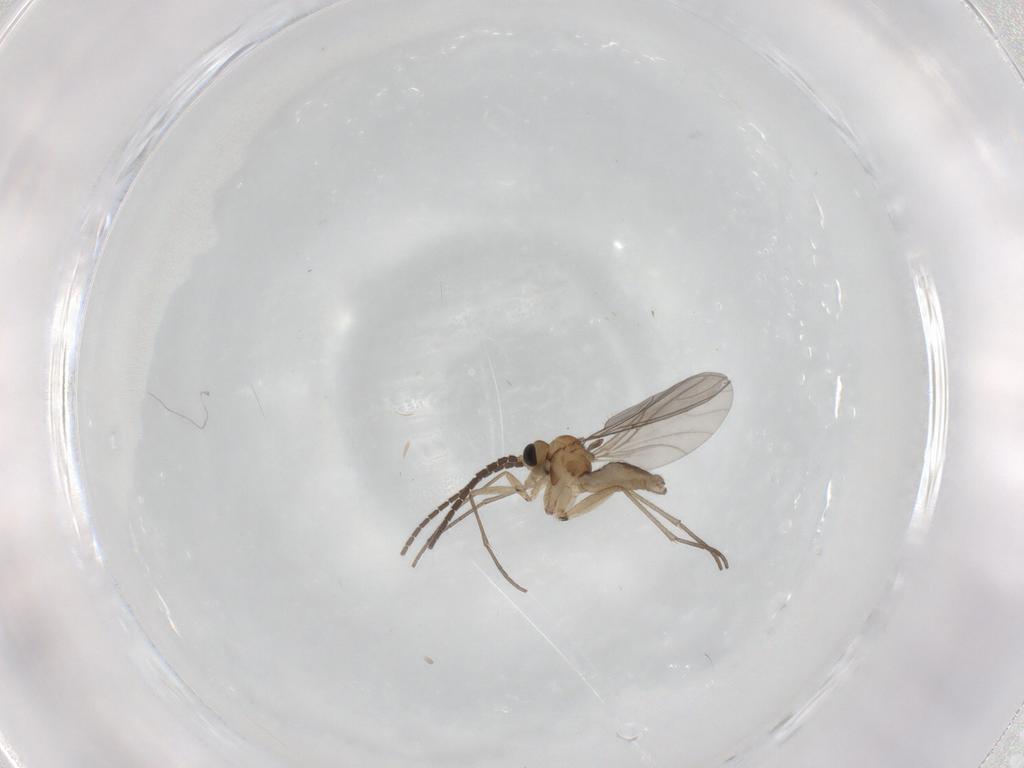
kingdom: Animalia
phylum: Arthropoda
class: Insecta
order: Diptera
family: Sciaridae
